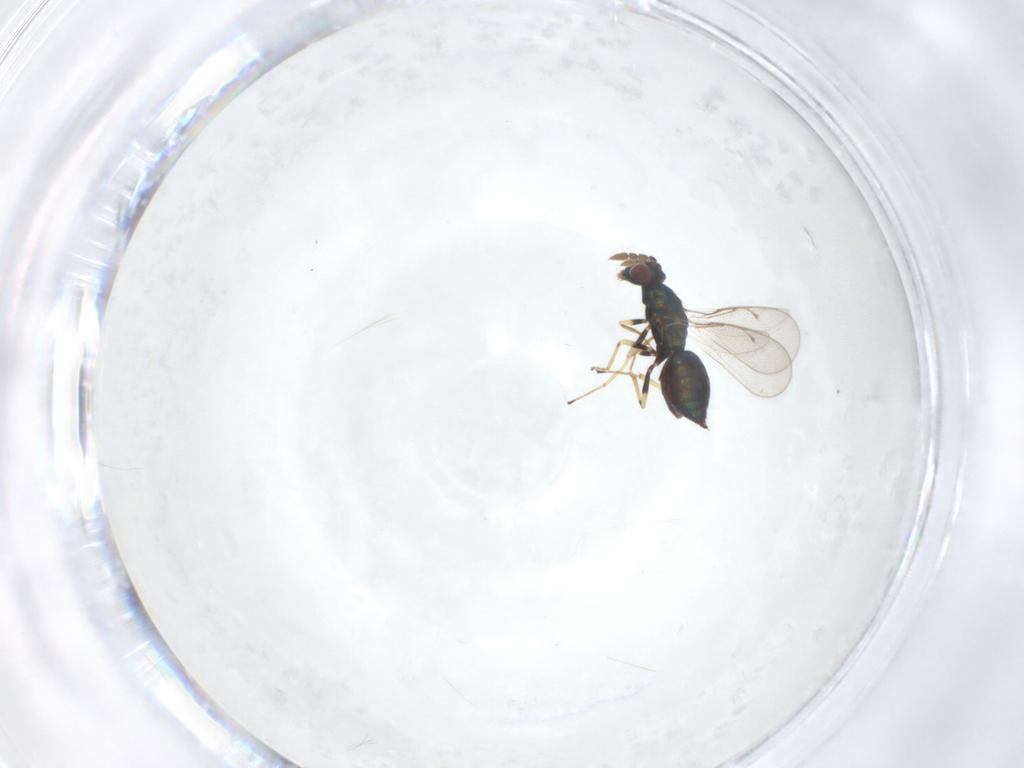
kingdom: Animalia
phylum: Arthropoda
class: Insecta
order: Hymenoptera
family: Eulophidae
